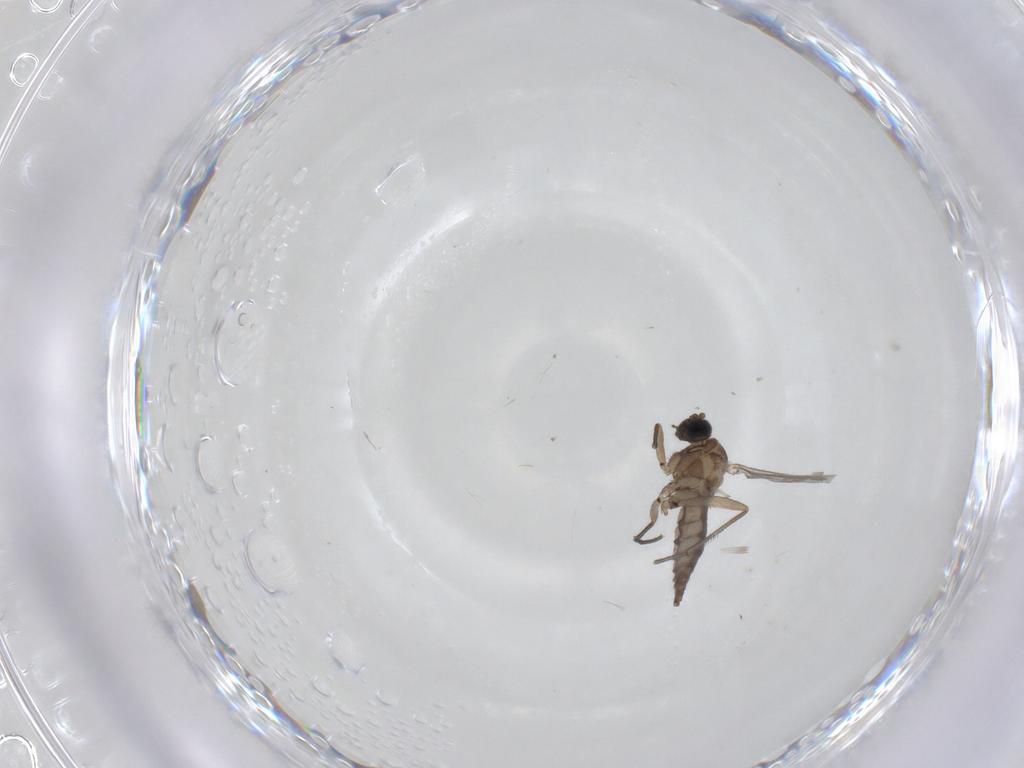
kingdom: Animalia
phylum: Arthropoda
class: Insecta
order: Diptera
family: Sciaridae
